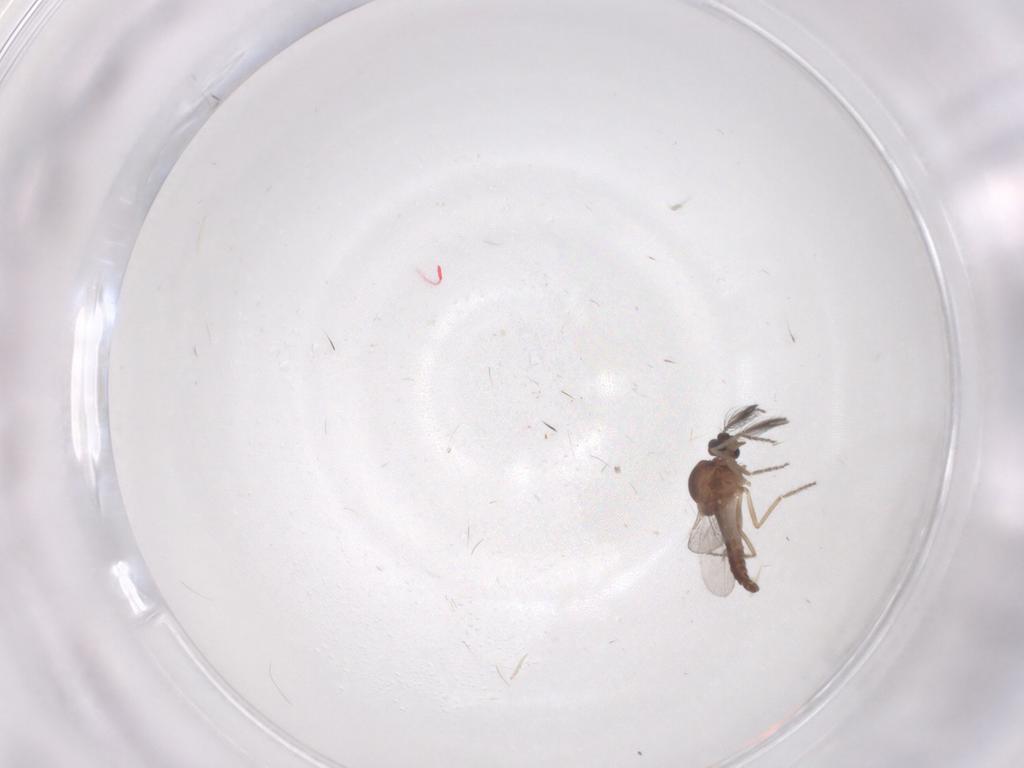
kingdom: Animalia
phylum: Arthropoda
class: Insecta
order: Diptera
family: Ceratopogonidae
